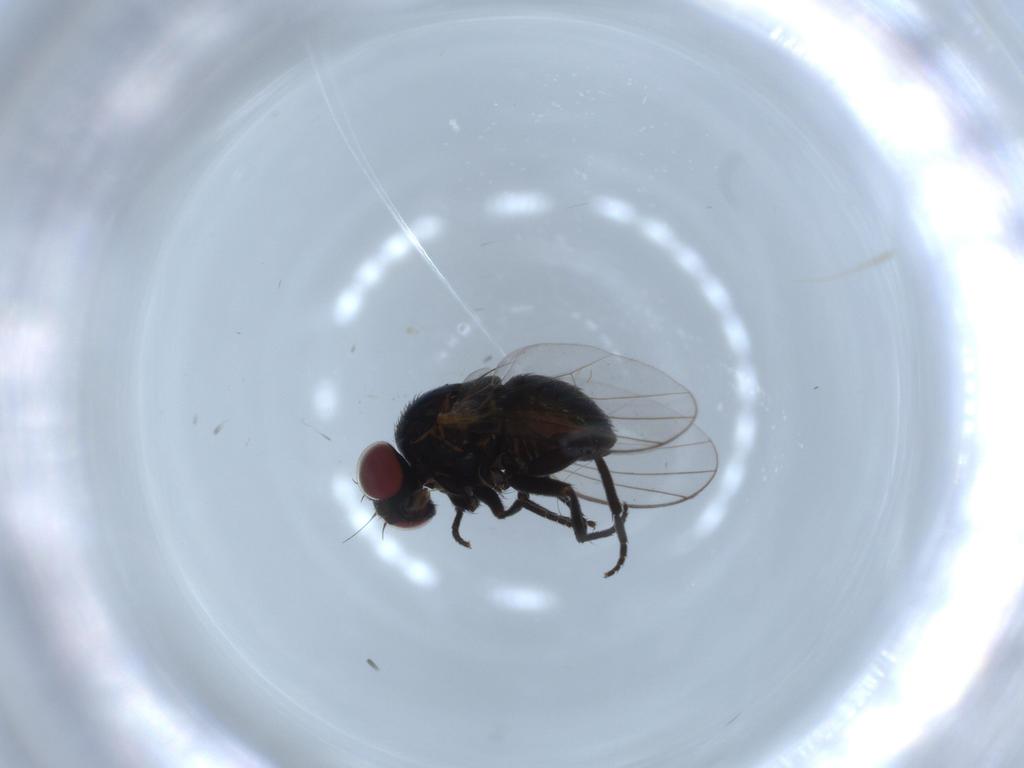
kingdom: Animalia
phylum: Arthropoda
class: Insecta
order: Diptera
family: Agromyzidae
